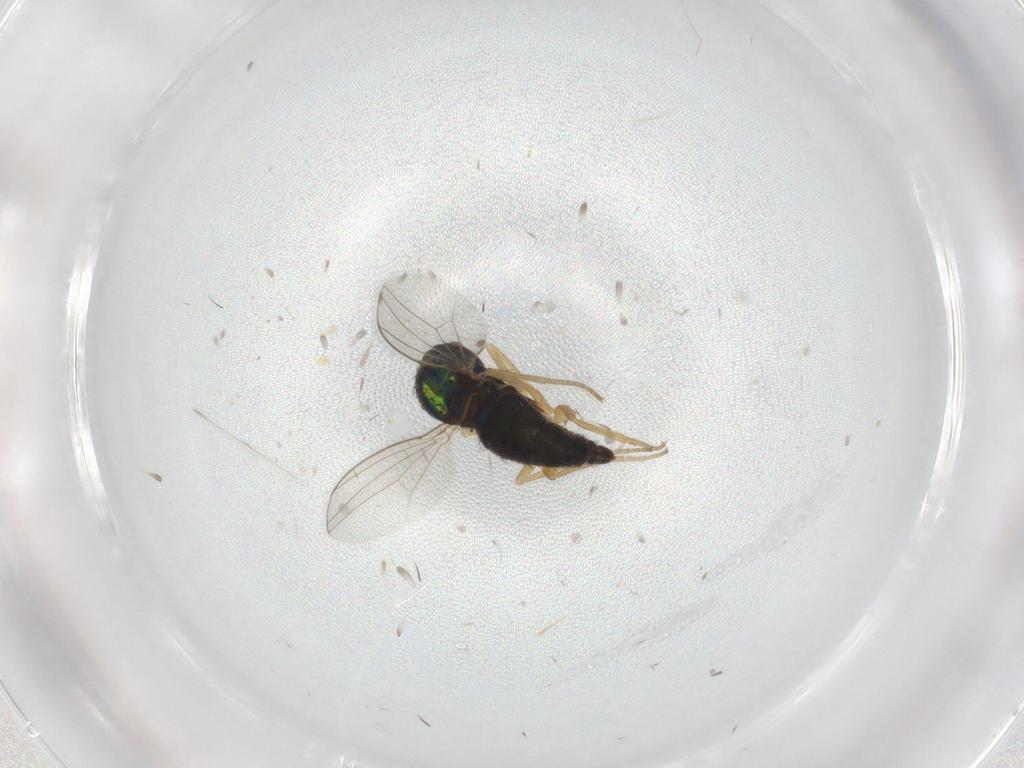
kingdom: Animalia
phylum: Arthropoda
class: Insecta
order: Diptera
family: Dolichopodidae
